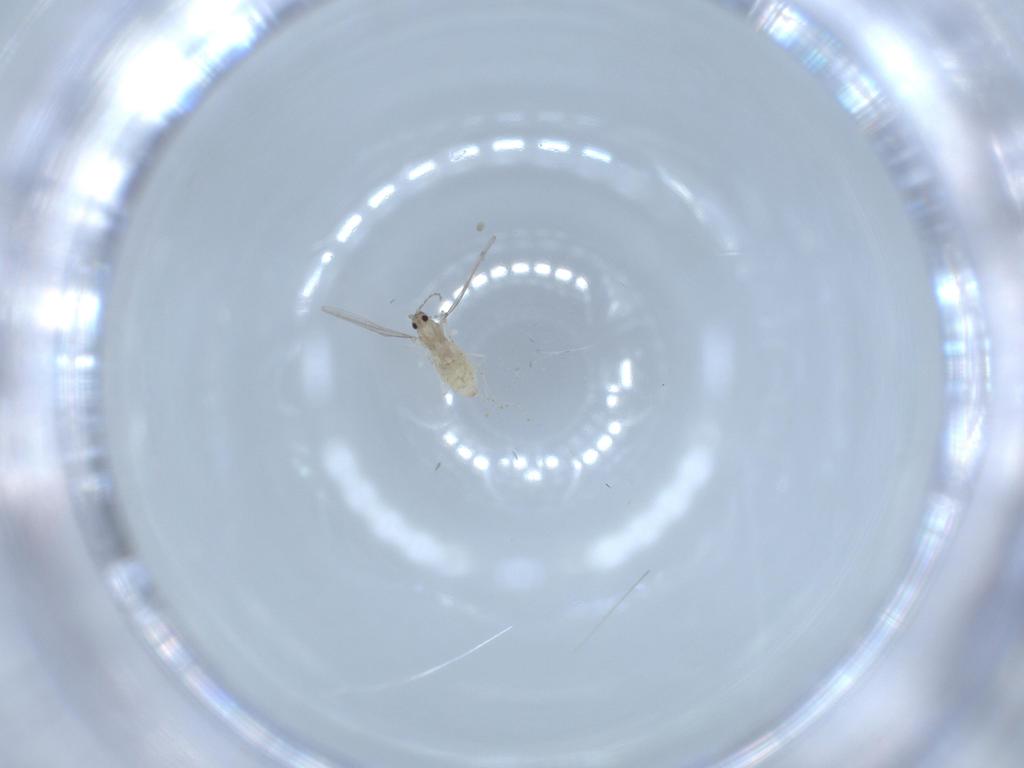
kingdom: Animalia
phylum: Arthropoda
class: Insecta
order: Diptera
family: Cecidomyiidae
